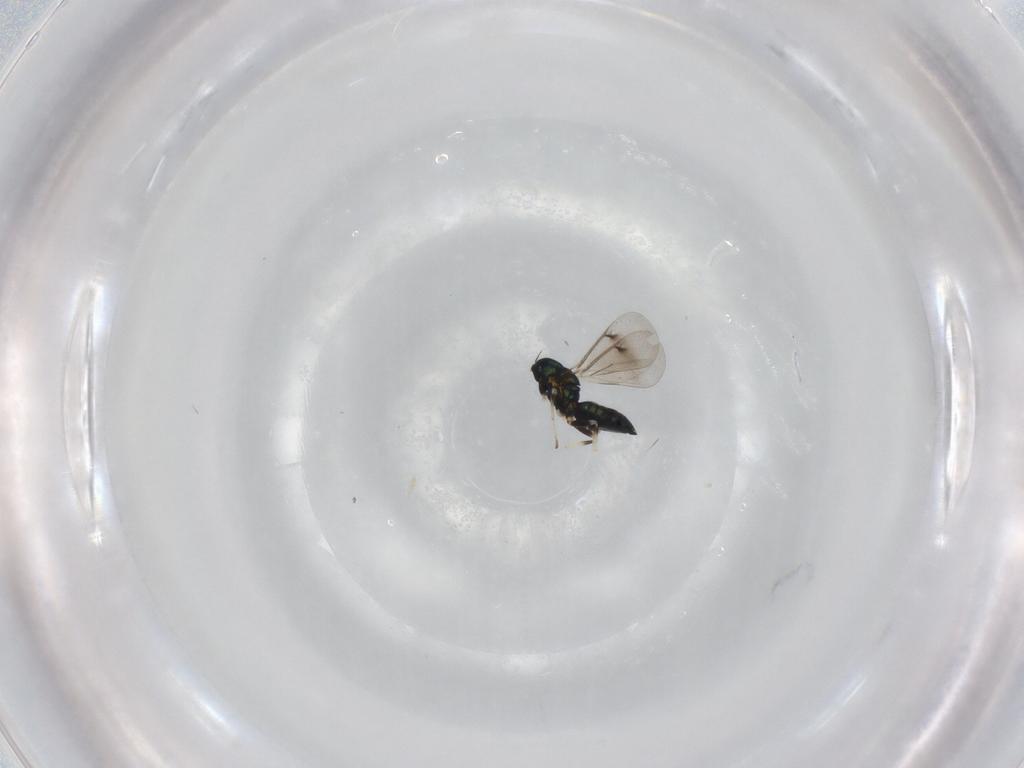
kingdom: Animalia
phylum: Arthropoda
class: Insecta
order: Hymenoptera
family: Eulophidae
